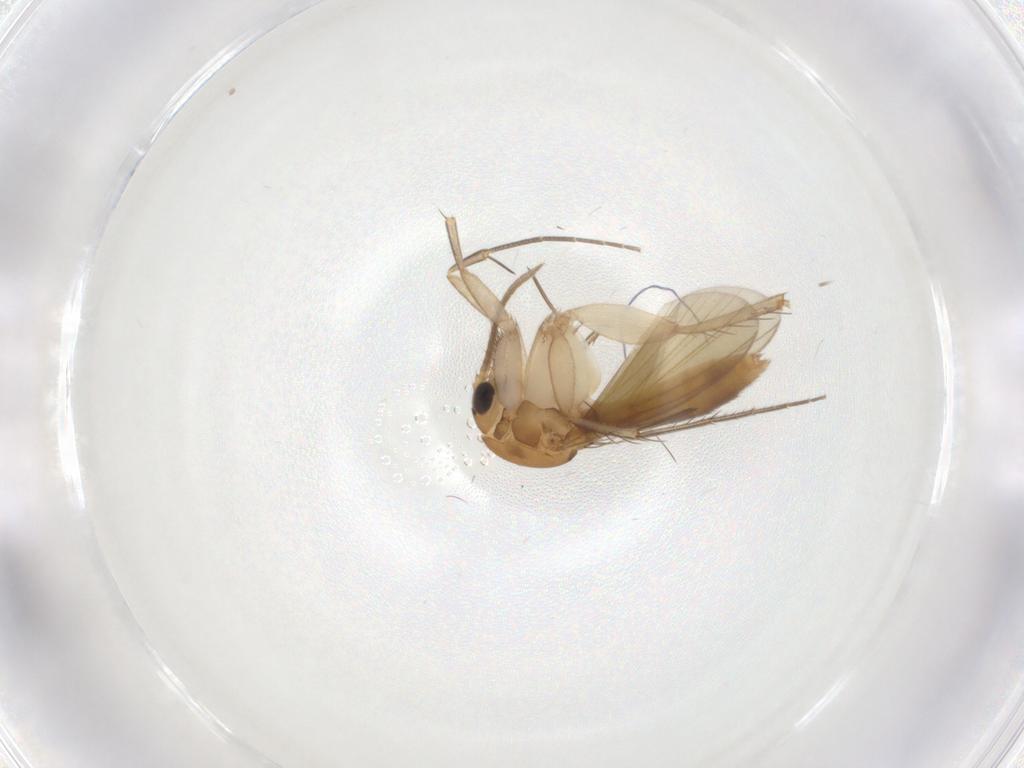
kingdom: Animalia
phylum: Arthropoda
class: Insecta
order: Diptera
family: Mycetophilidae
